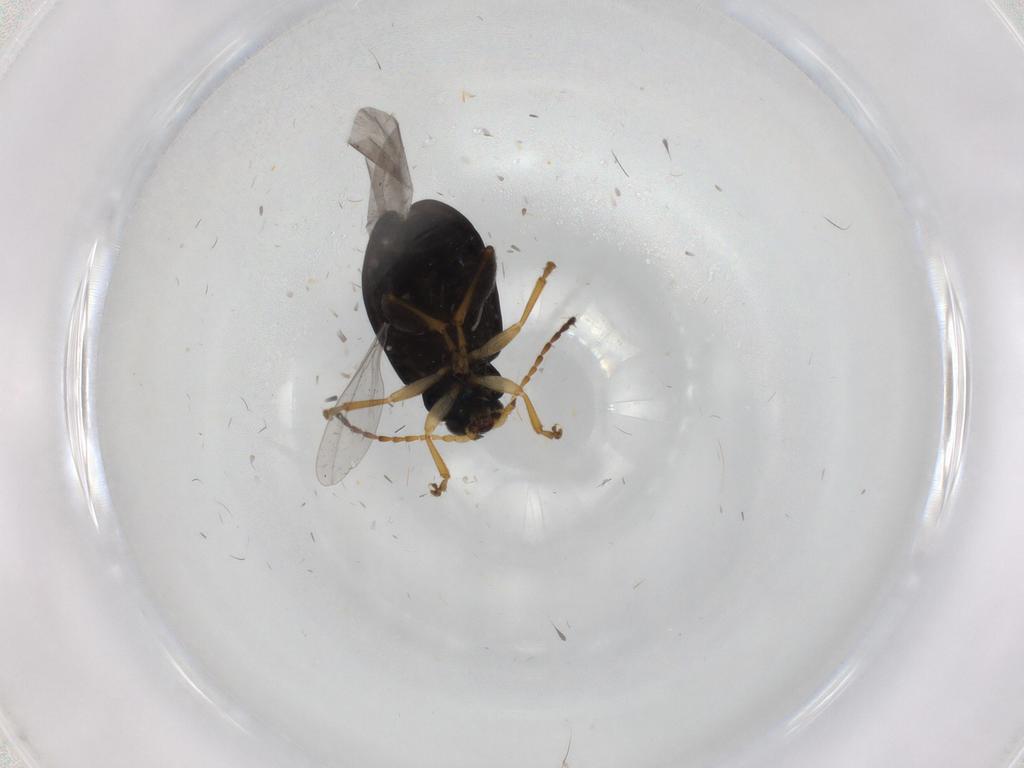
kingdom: Animalia
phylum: Arthropoda
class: Insecta
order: Coleoptera
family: Chrysomelidae
